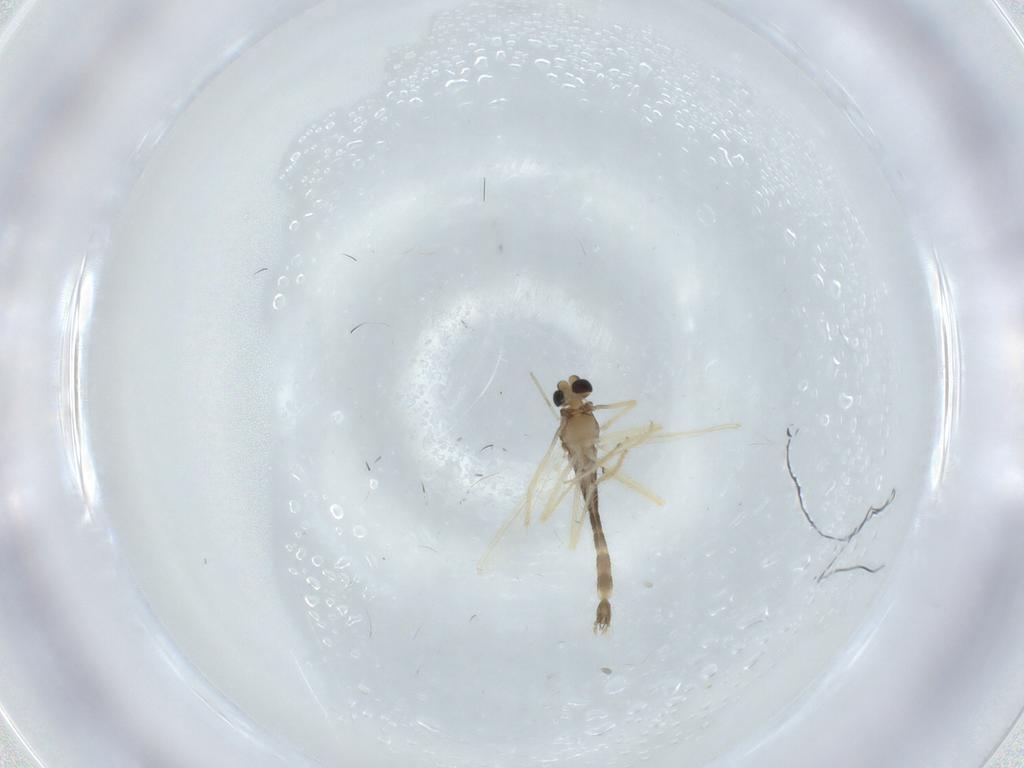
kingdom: Animalia
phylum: Arthropoda
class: Insecta
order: Diptera
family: Chironomidae
